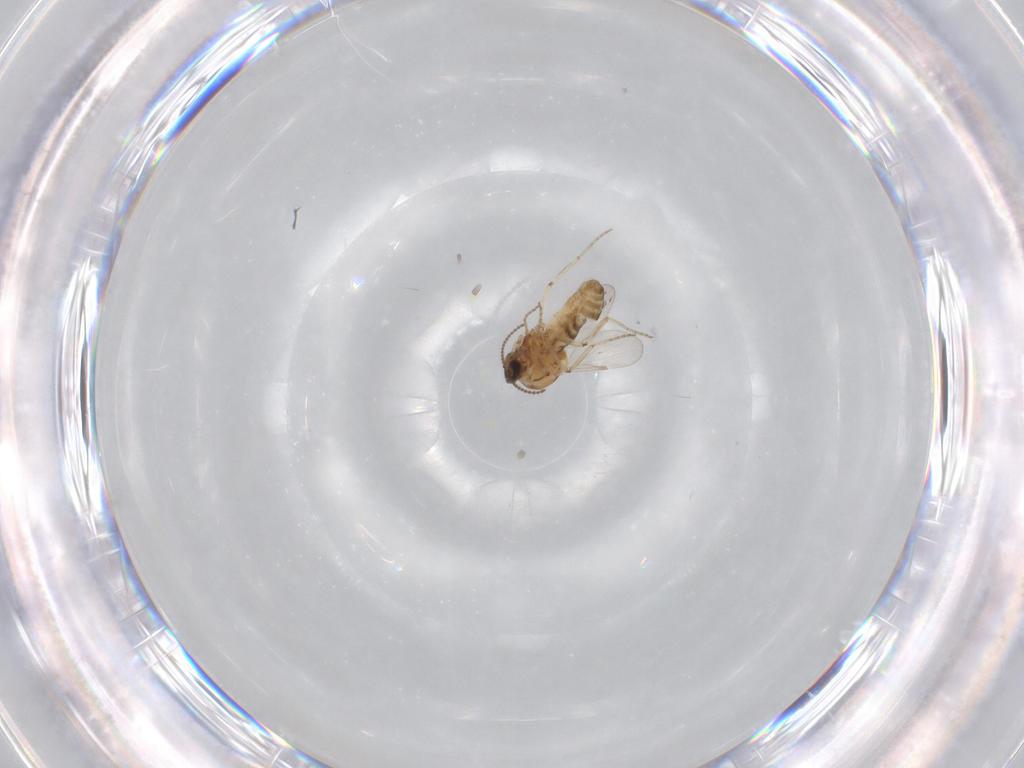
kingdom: Animalia
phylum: Arthropoda
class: Insecta
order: Diptera
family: Ceratopogonidae
